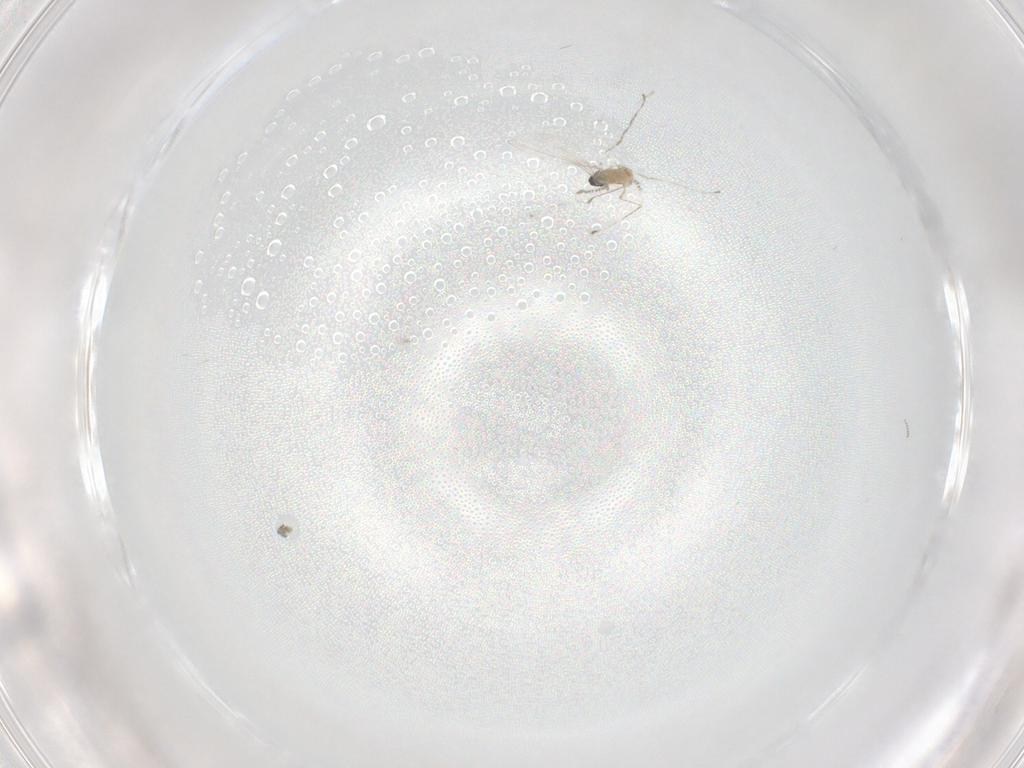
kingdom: Animalia
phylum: Arthropoda
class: Insecta
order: Diptera
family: Cecidomyiidae
